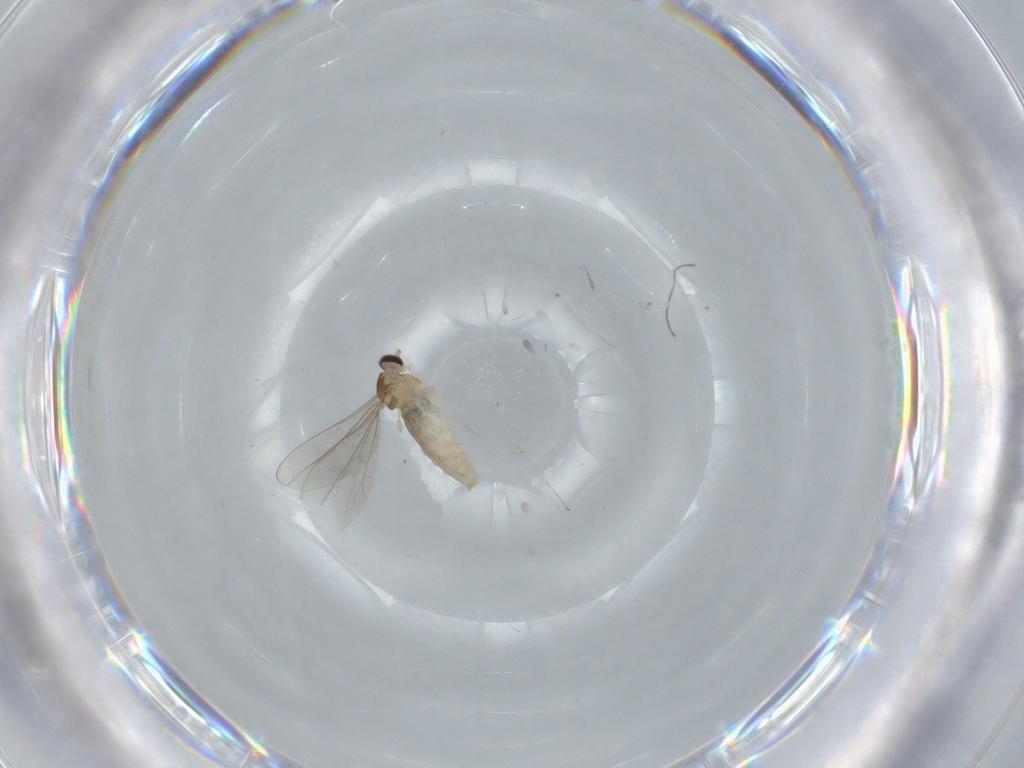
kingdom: Animalia
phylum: Arthropoda
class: Insecta
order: Diptera
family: Cecidomyiidae
